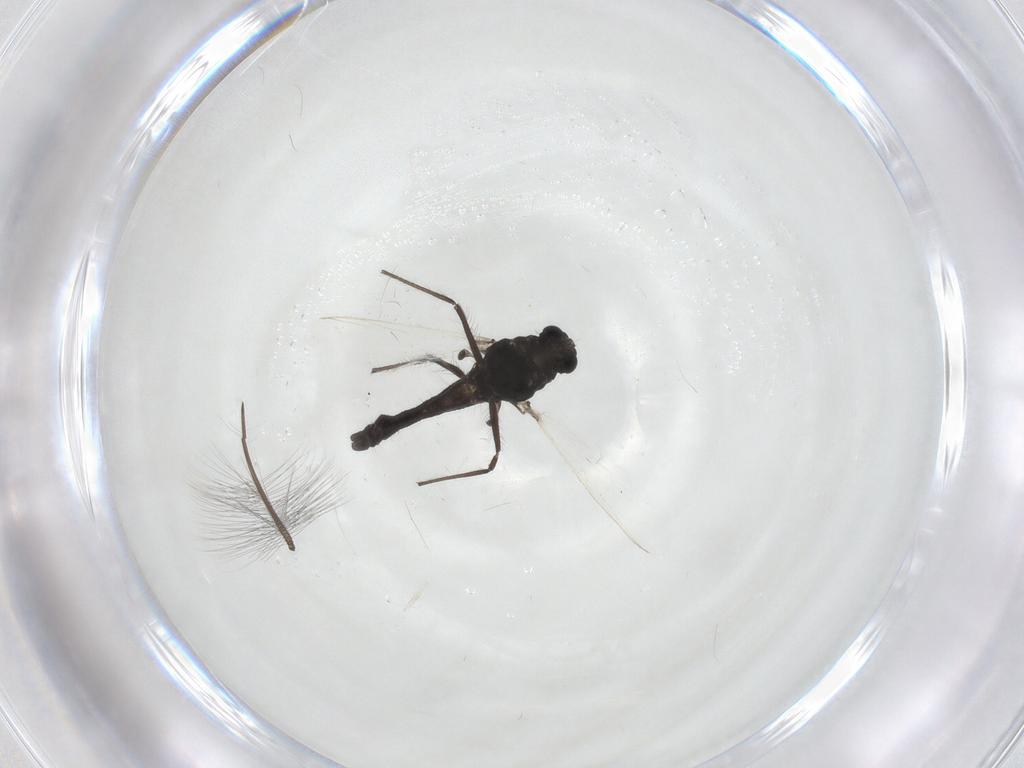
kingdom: Animalia
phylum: Arthropoda
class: Insecta
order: Diptera
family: Chironomidae
